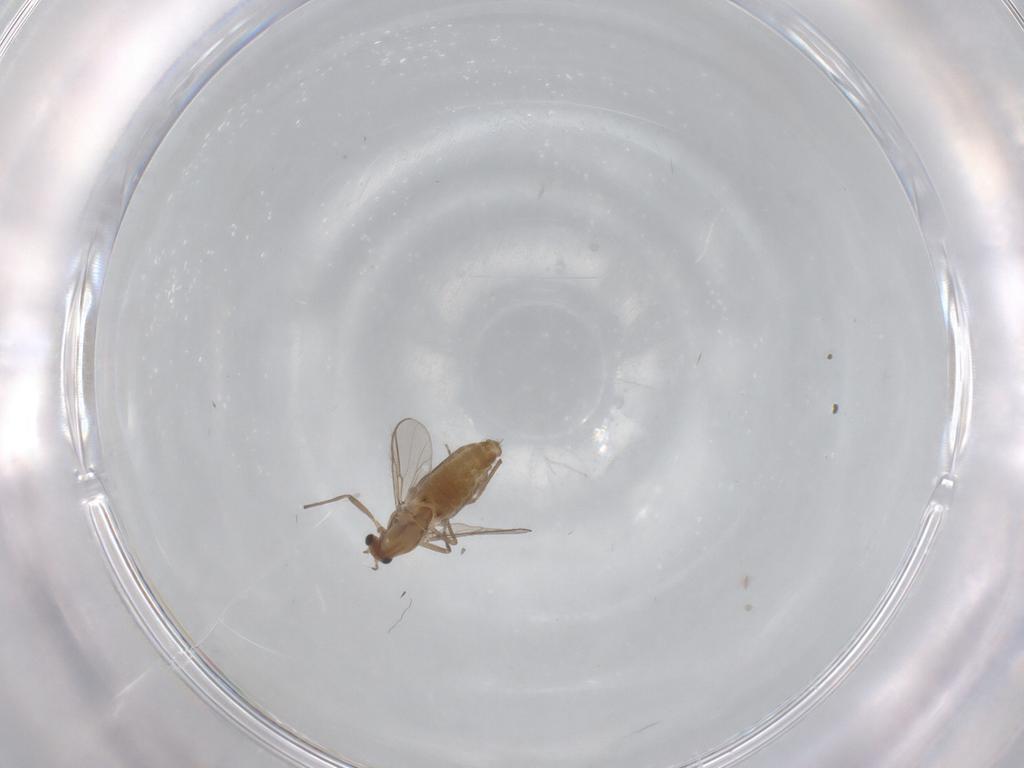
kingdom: Animalia
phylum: Arthropoda
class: Insecta
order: Diptera
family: Chironomidae
